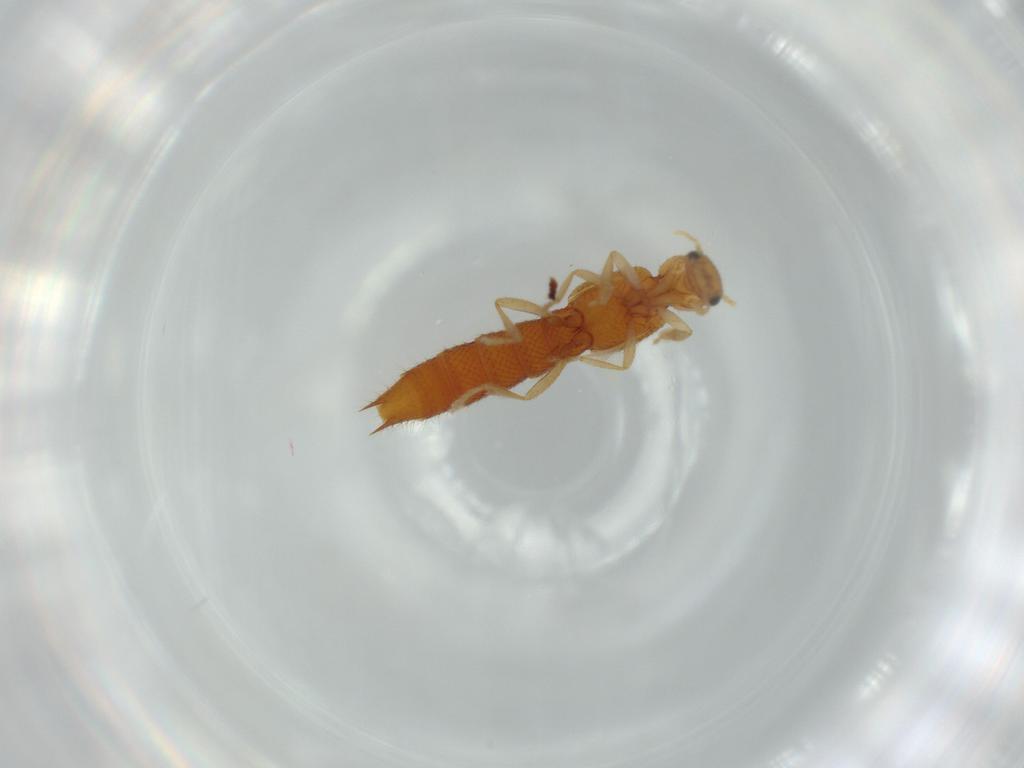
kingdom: Animalia
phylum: Arthropoda
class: Insecta
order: Coleoptera
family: Staphylinidae
